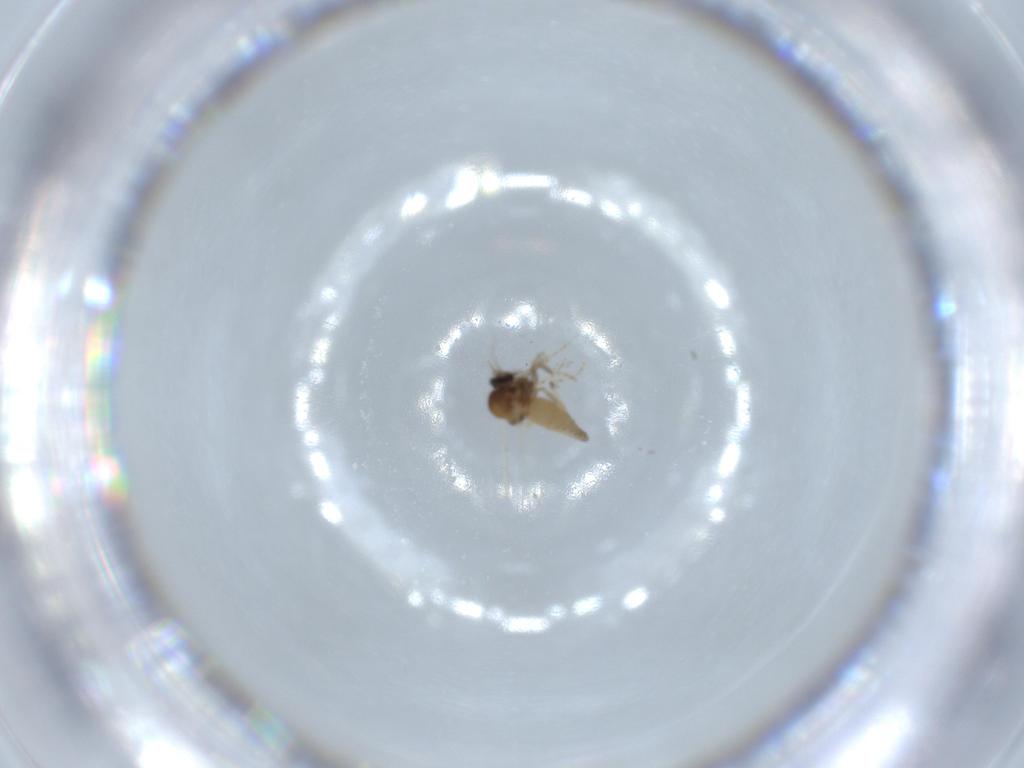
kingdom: Animalia
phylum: Arthropoda
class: Insecta
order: Diptera
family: Ceratopogonidae
